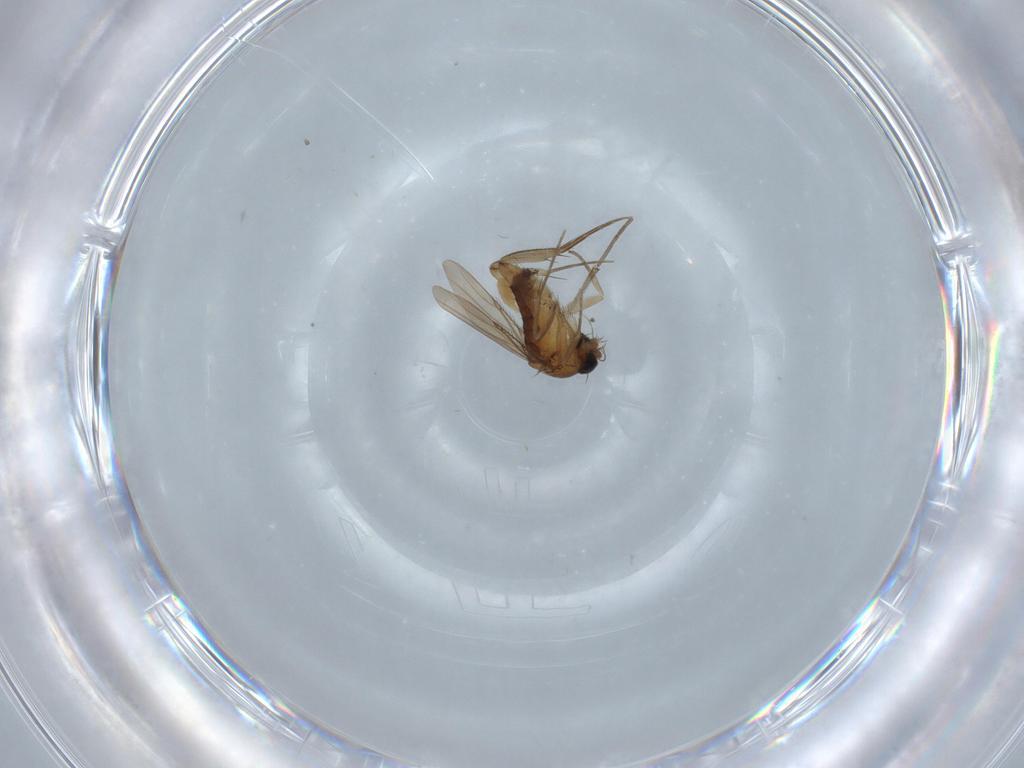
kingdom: Animalia
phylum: Arthropoda
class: Insecta
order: Diptera
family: Phoridae
